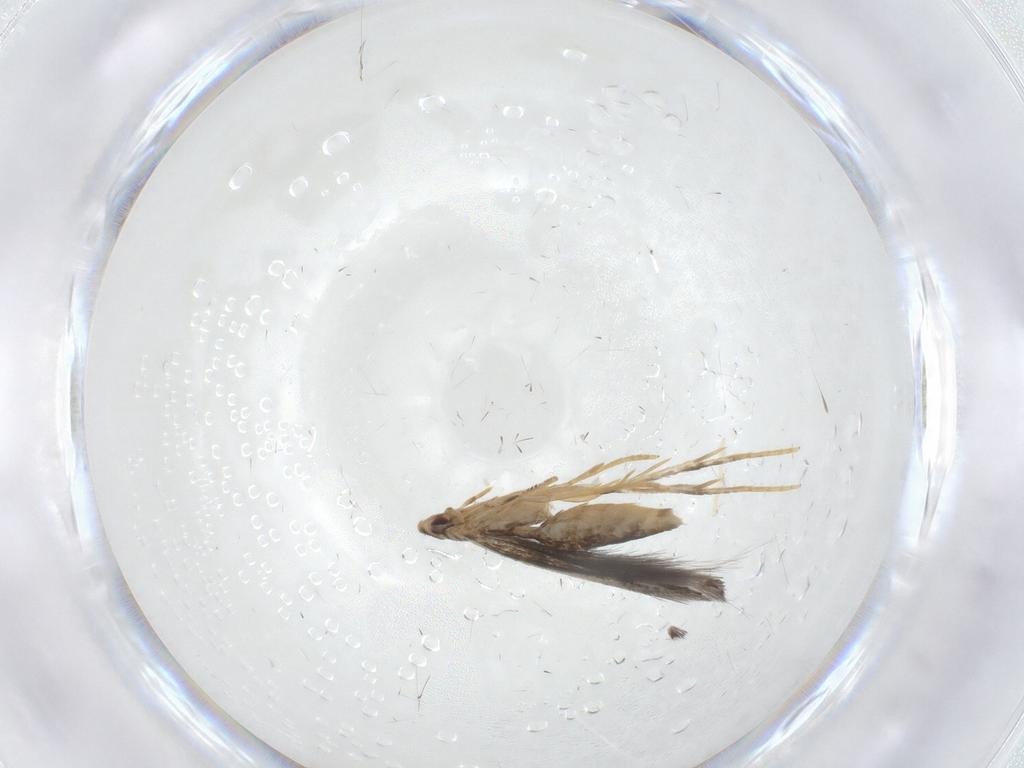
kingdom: Animalia
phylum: Arthropoda
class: Insecta
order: Lepidoptera
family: Elachistidae
